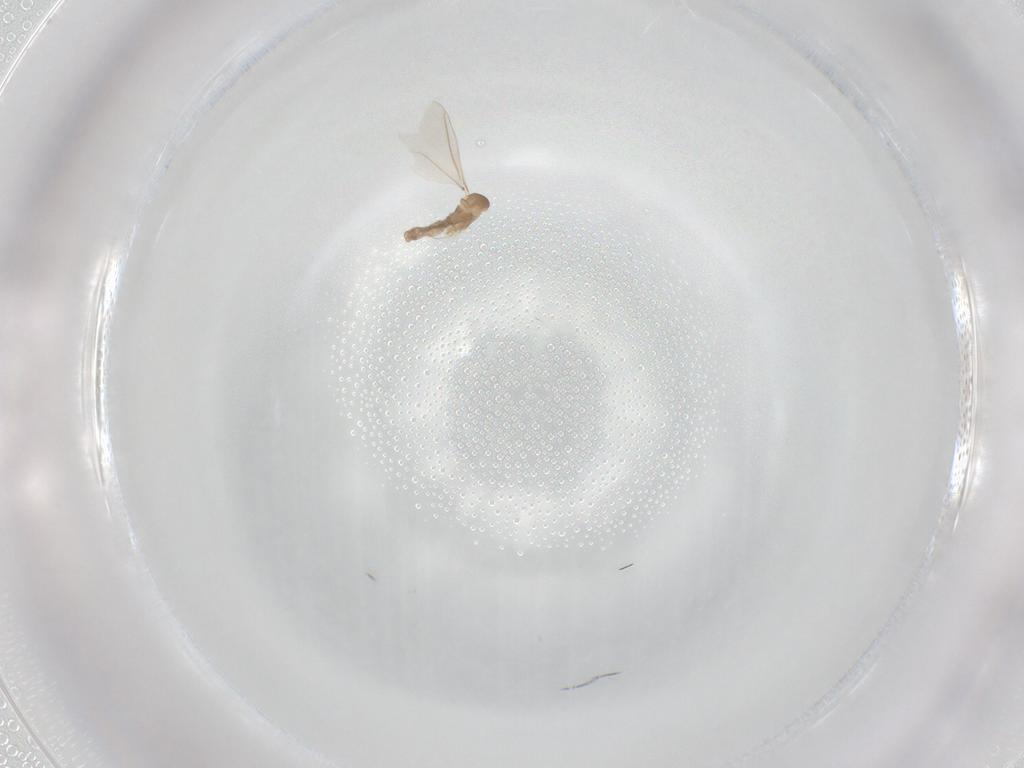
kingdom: Animalia
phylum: Arthropoda
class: Insecta
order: Diptera
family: Cecidomyiidae
